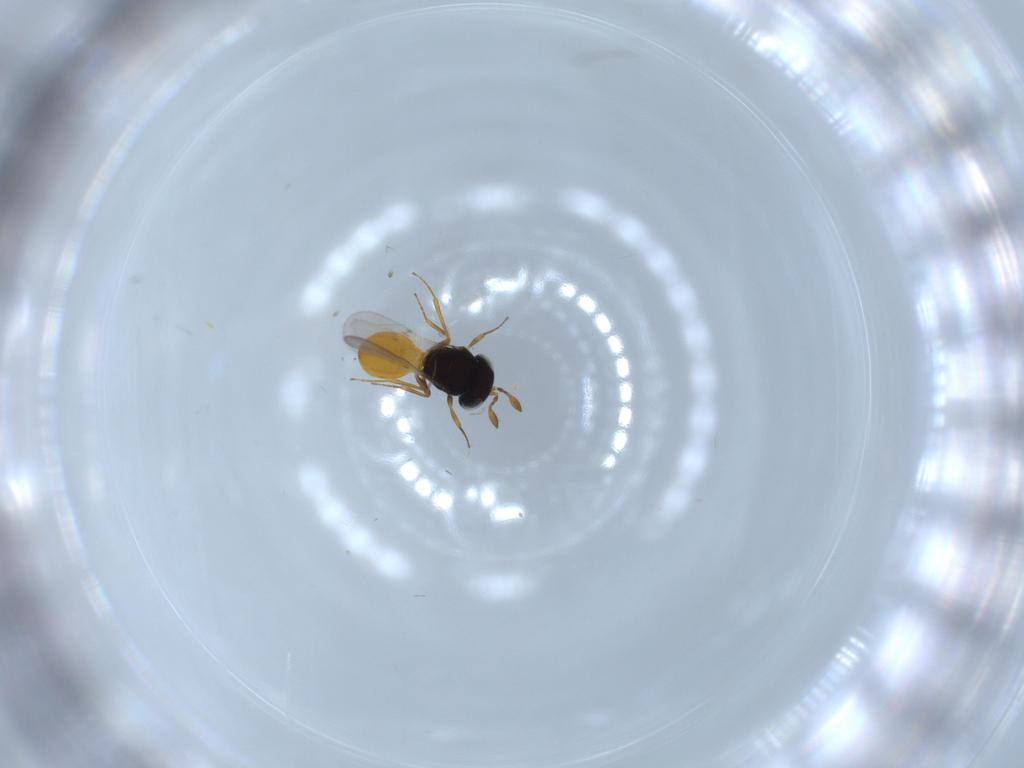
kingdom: Animalia
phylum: Arthropoda
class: Insecta
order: Hymenoptera
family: Scelionidae
